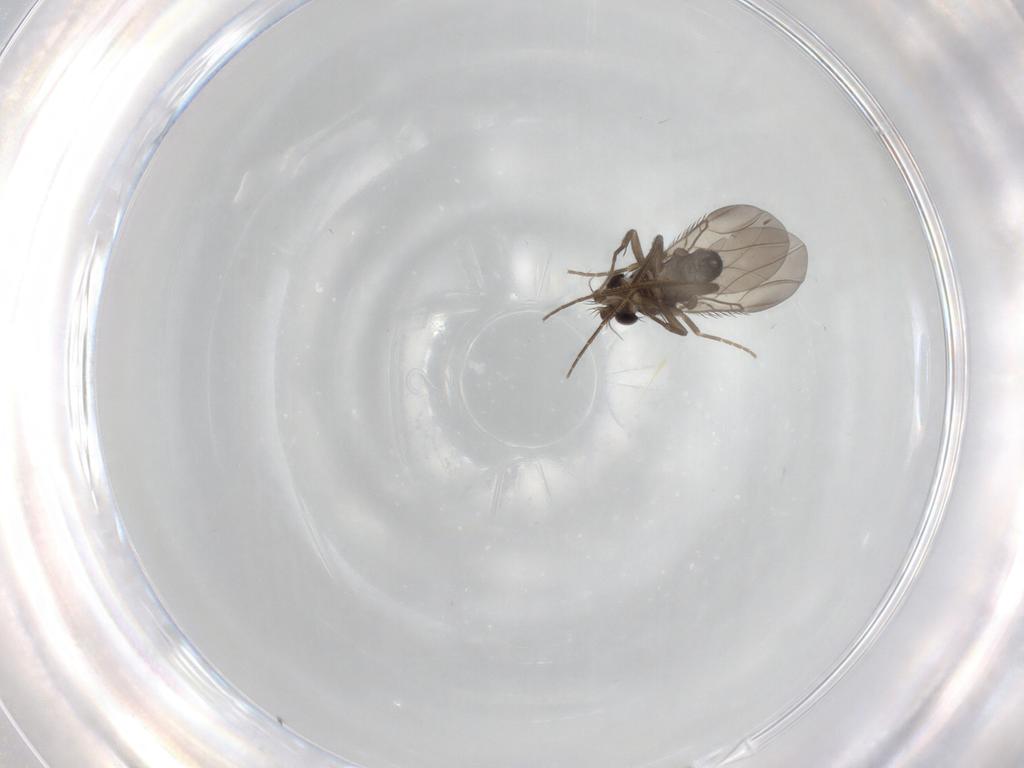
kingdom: Animalia
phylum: Arthropoda
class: Insecta
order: Diptera
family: Phoridae
